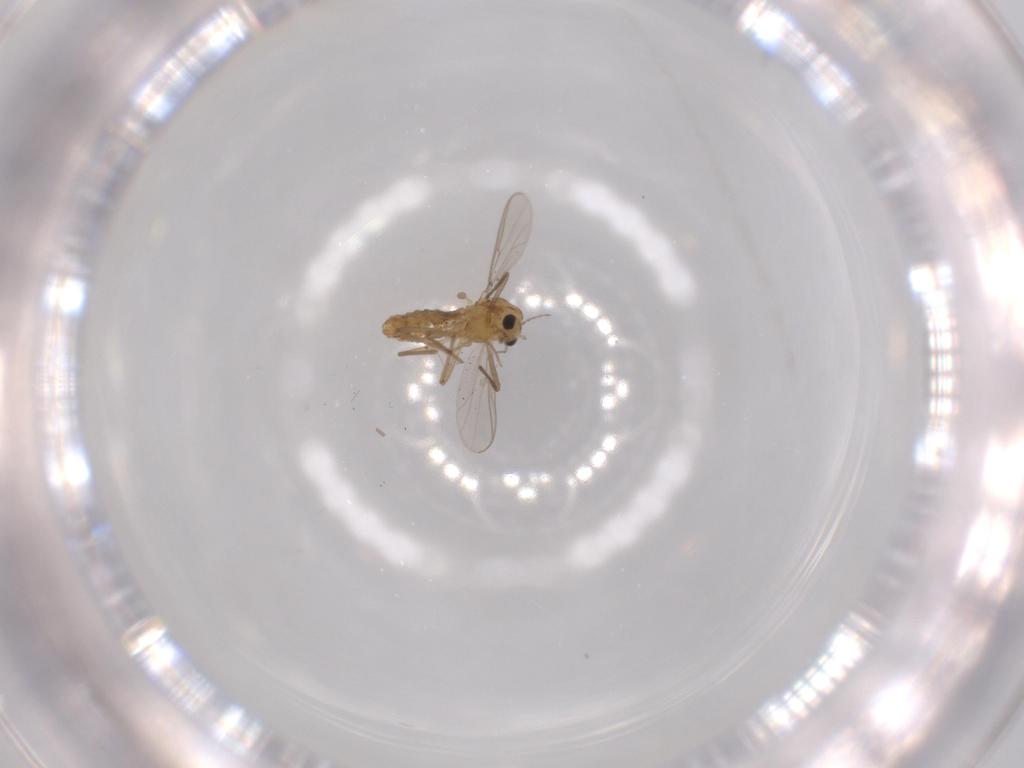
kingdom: Animalia
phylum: Arthropoda
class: Insecta
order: Diptera
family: Chironomidae
